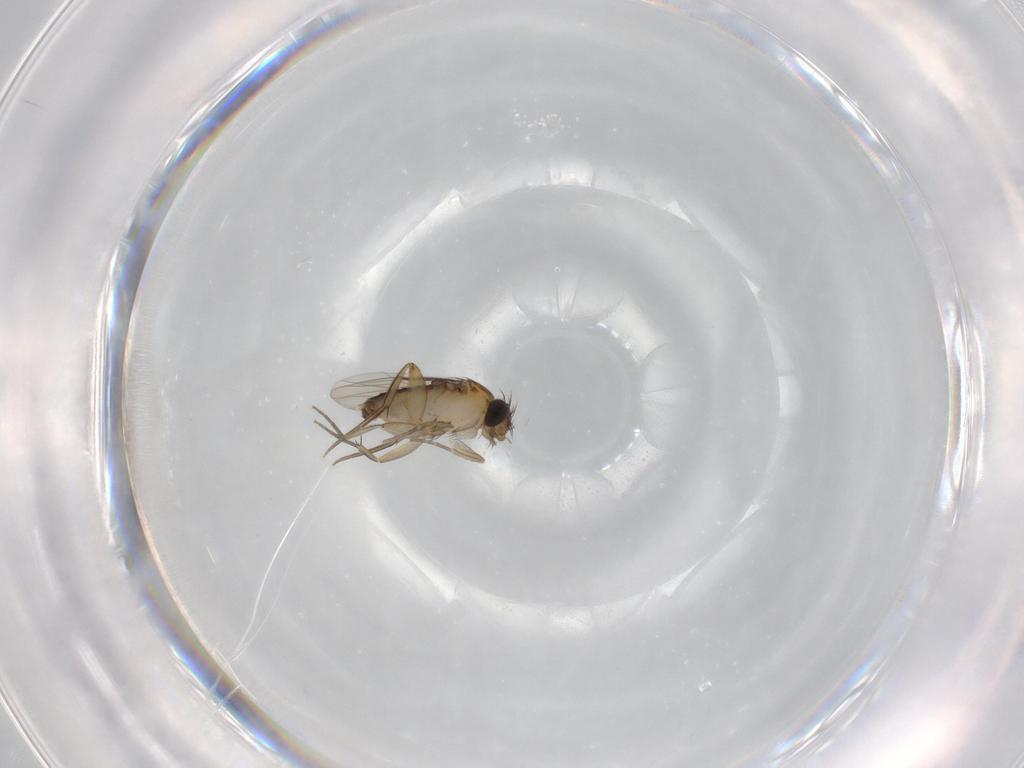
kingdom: Animalia
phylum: Arthropoda
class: Insecta
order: Diptera
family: Phoridae
